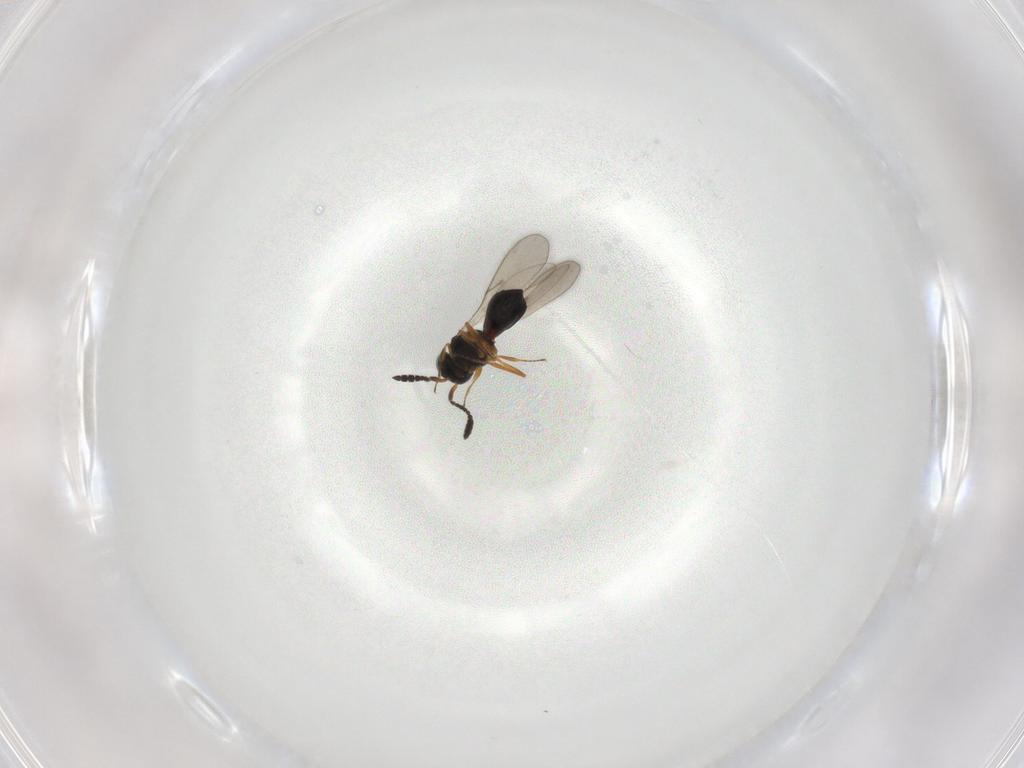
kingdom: Animalia
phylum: Arthropoda
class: Insecta
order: Hymenoptera
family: Scelionidae
